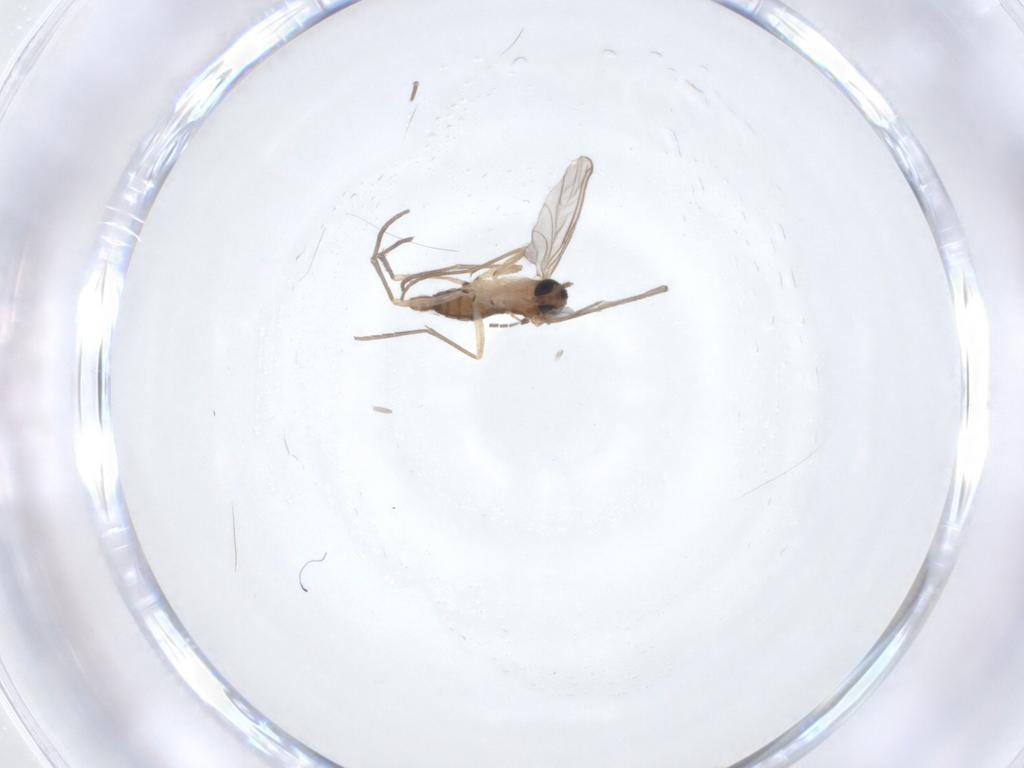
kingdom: Animalia
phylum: Arthropoda
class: Insecta
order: Diptera
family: Sciaridae
